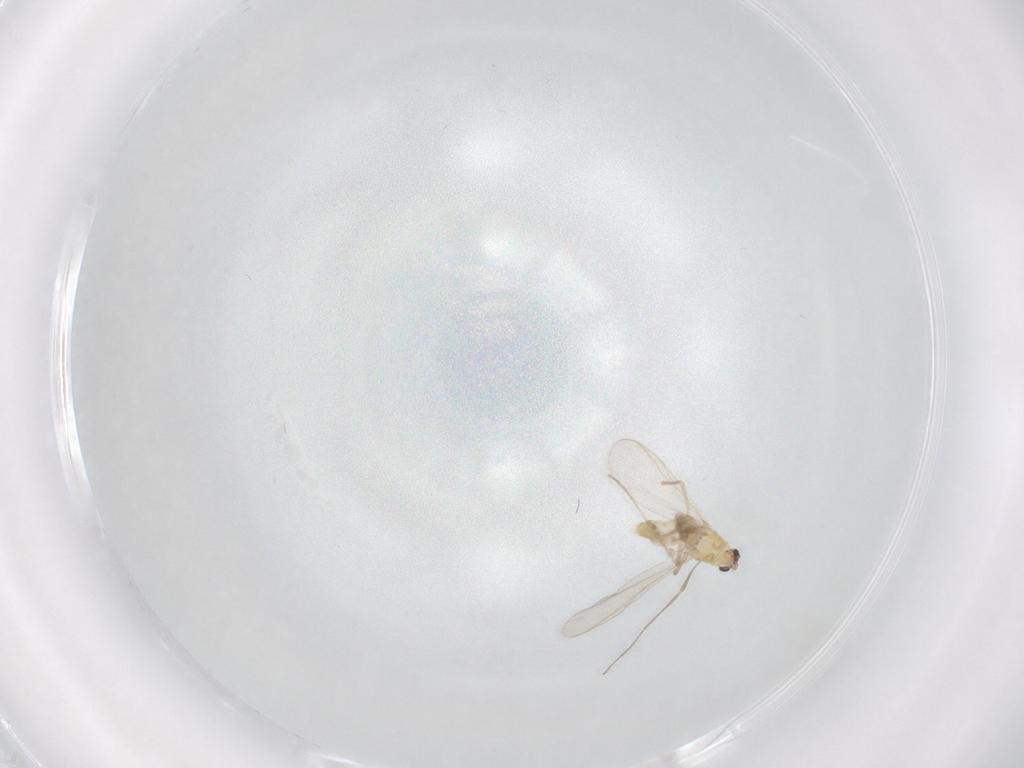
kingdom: Animalia
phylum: Arthropoda
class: Insecta
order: Diptera
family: Chironomidae
